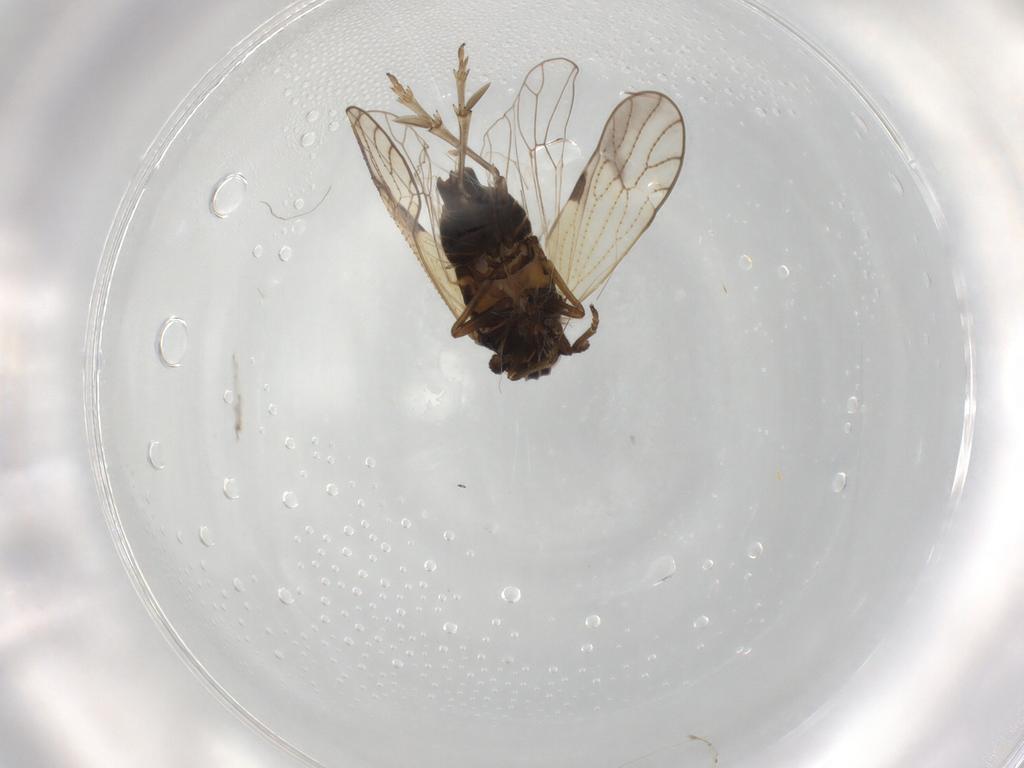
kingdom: Animalia
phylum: Arthropoda
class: Insecta
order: Hemiptera
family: Delphacidae
